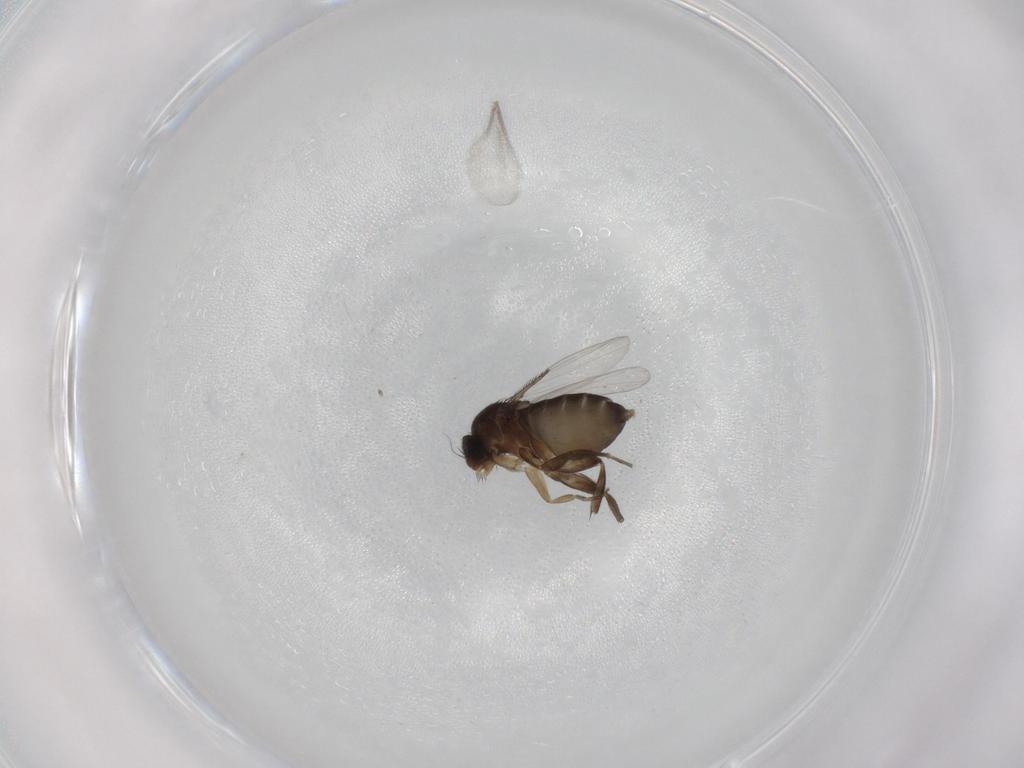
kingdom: Animalia
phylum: Arthropoda
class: Insecta
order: Diptera
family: Phoridae
